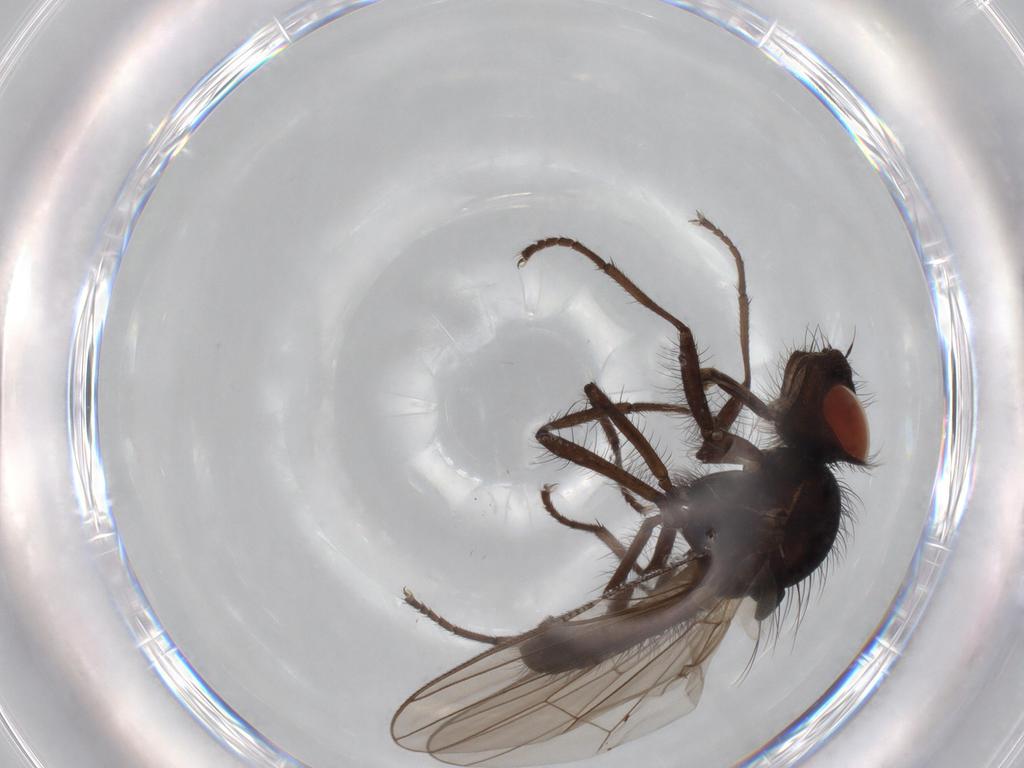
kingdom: Animalia
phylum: Arthropoda
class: Insecta
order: Diptera
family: Anthomyiidae
